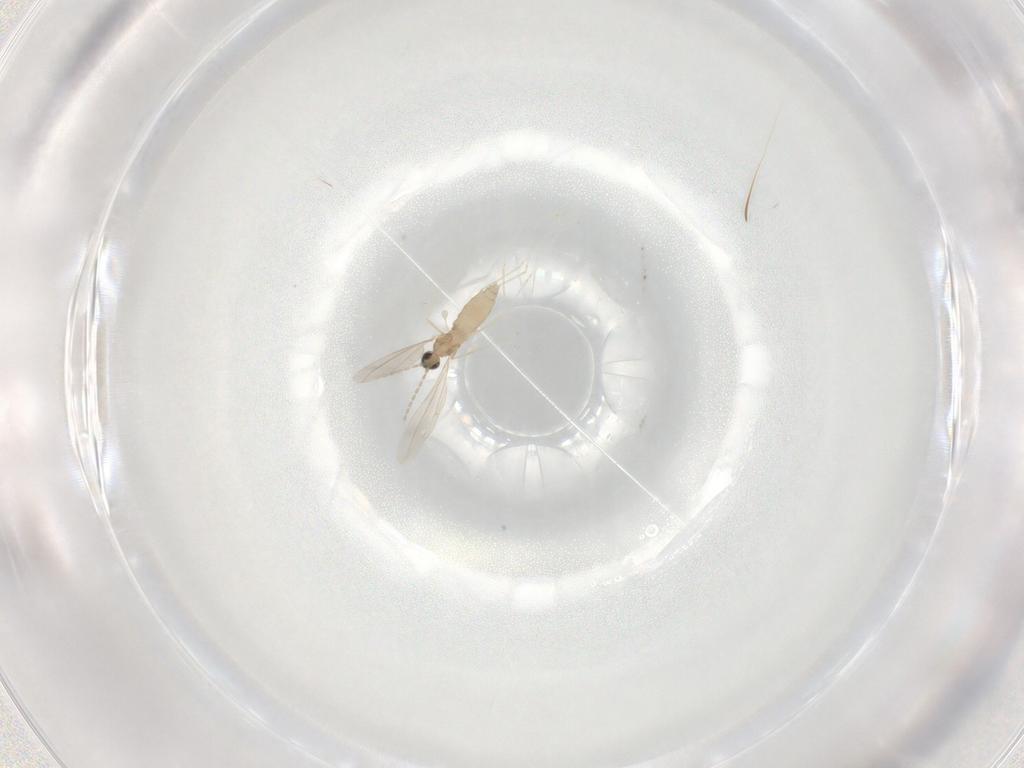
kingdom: Animalia
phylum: Arthropoda
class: Insecta
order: Diptera
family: Cecidomyiidae
